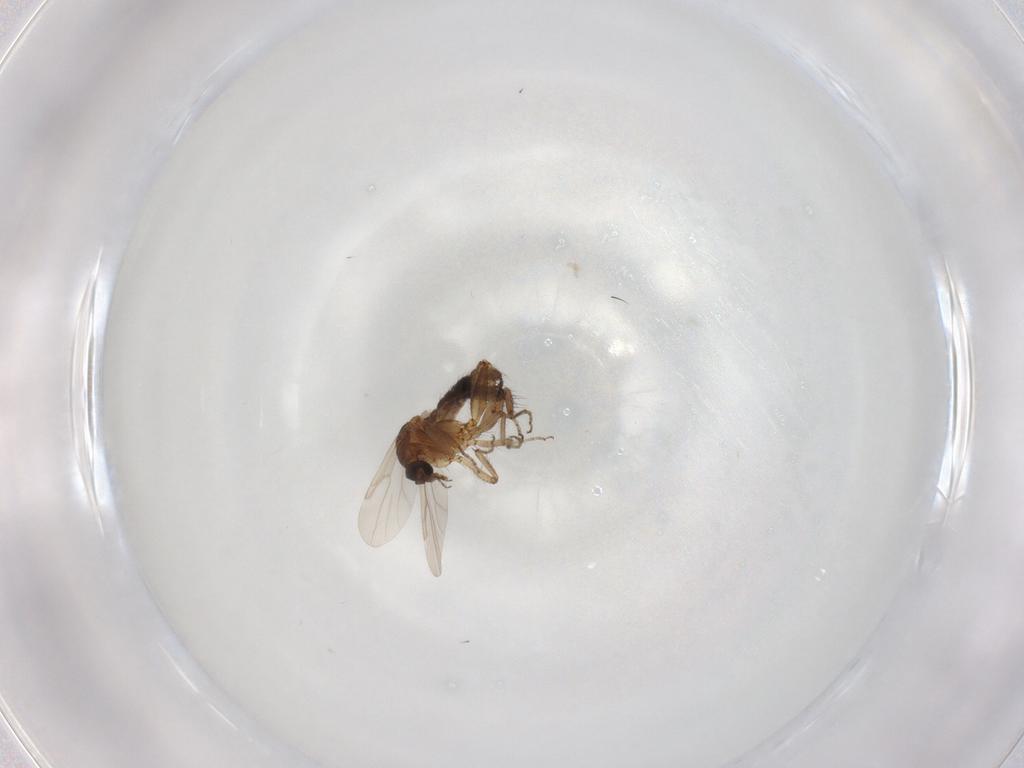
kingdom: Animalia
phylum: Arthropoda
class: Insecta
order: Diptera
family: Ceratopogonidae
